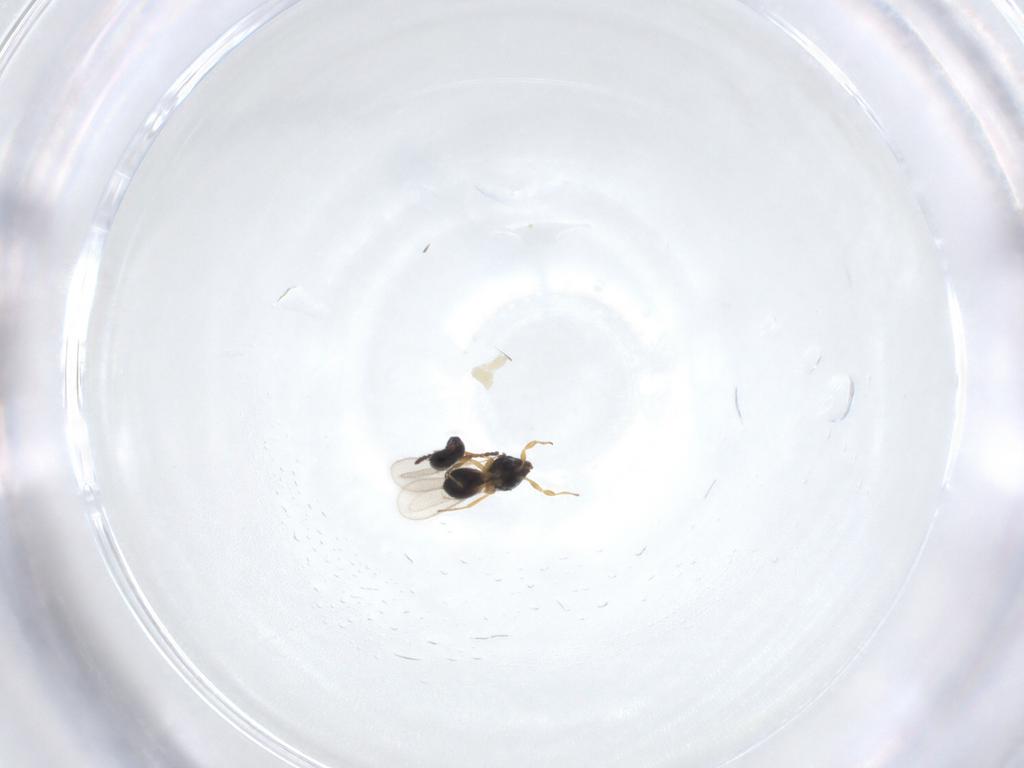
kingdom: Animalia
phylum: Arthropoda
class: Insecta
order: Hymenoptera
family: Scelionidae
